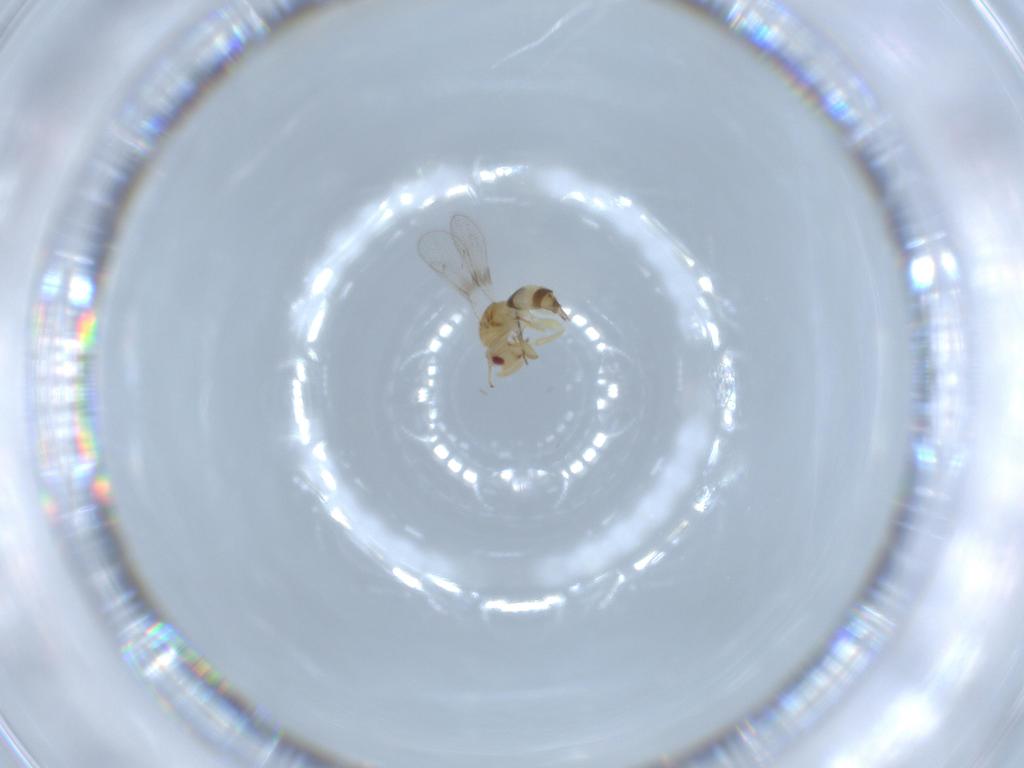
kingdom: Animalia
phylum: Arthropoda
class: Insecta
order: Hymenoptera
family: Torymidae
